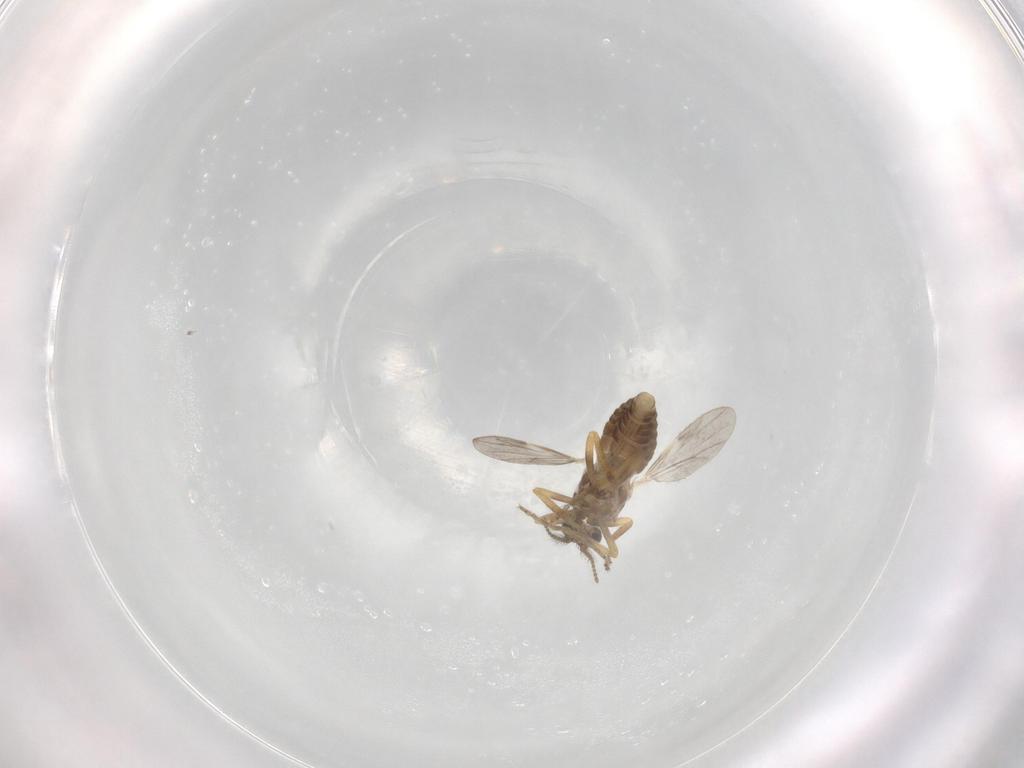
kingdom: Animalia
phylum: Arthropoda
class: Insecta
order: Diptera
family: Ceratopogonidae
